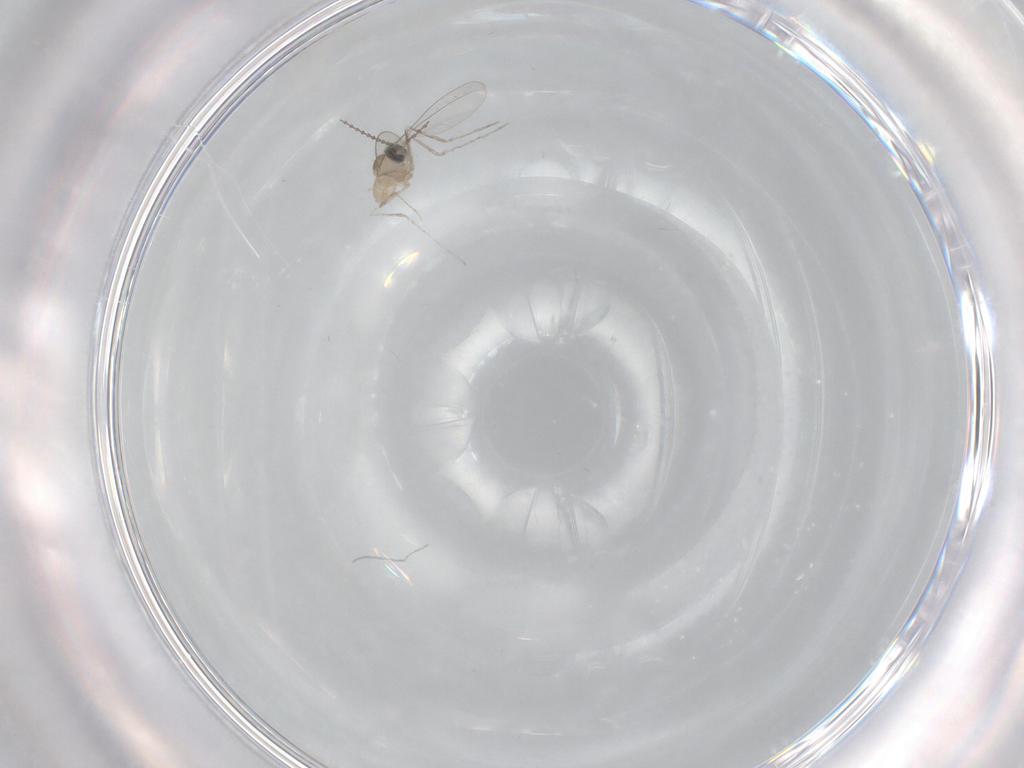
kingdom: Animalia
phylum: Arthropoda
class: Insecta
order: Diptera
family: Cecidomyiidae
